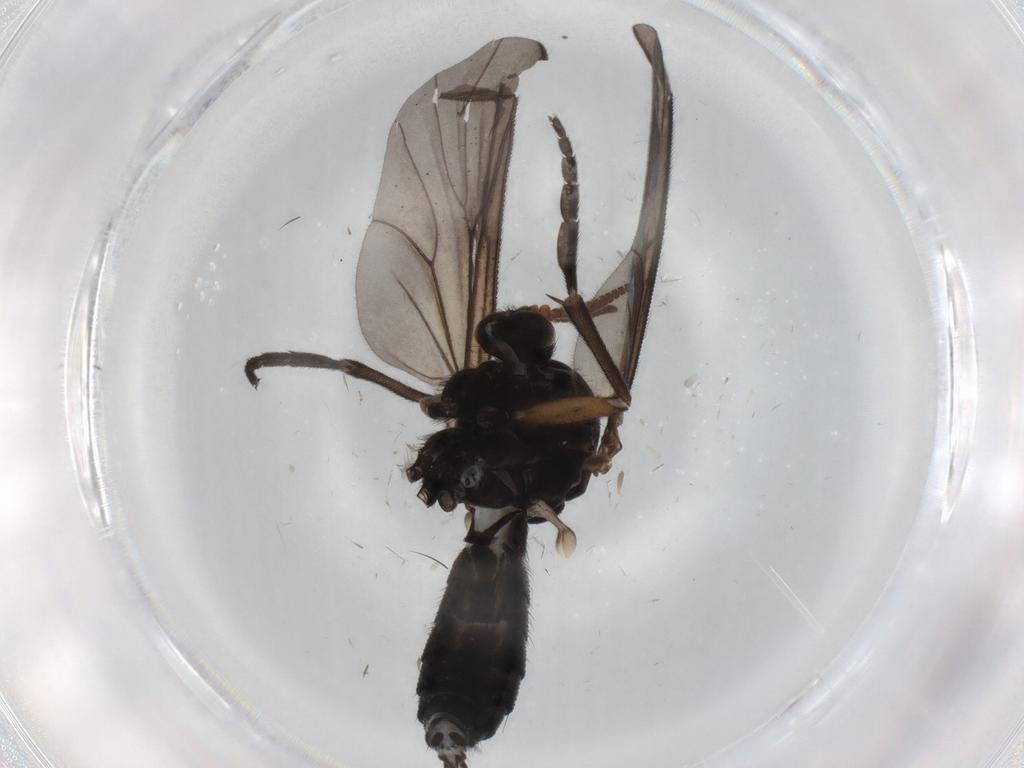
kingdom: Animalia
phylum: Arthropoda
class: Insecta
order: Diptera
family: Mycetophilidae
